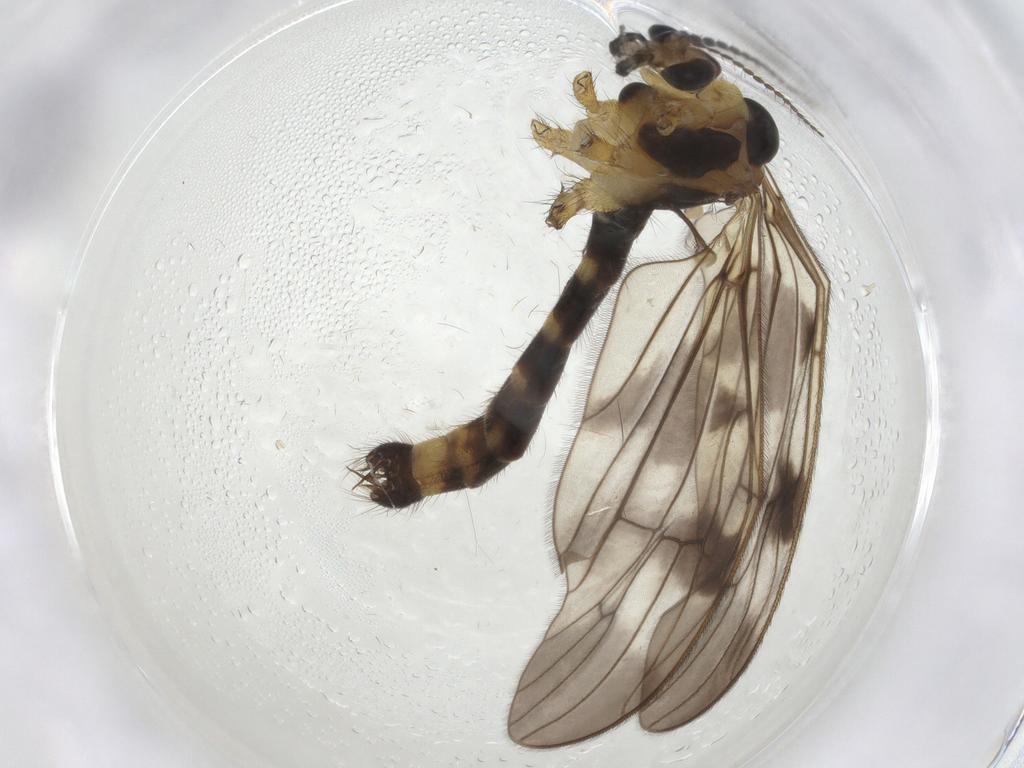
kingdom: Animalia
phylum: Arthropoda
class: Insecta
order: Diptera
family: Limoniidae
